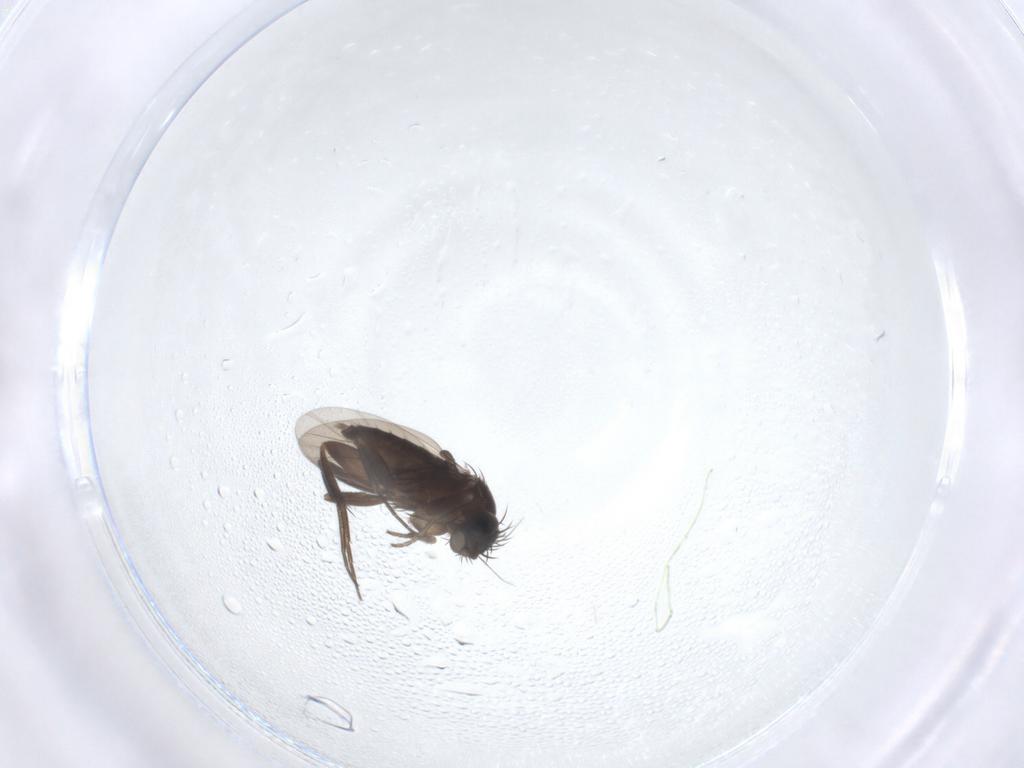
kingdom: Animalia
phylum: Arthropoda
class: Insecta
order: Diptera
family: Phoridae
